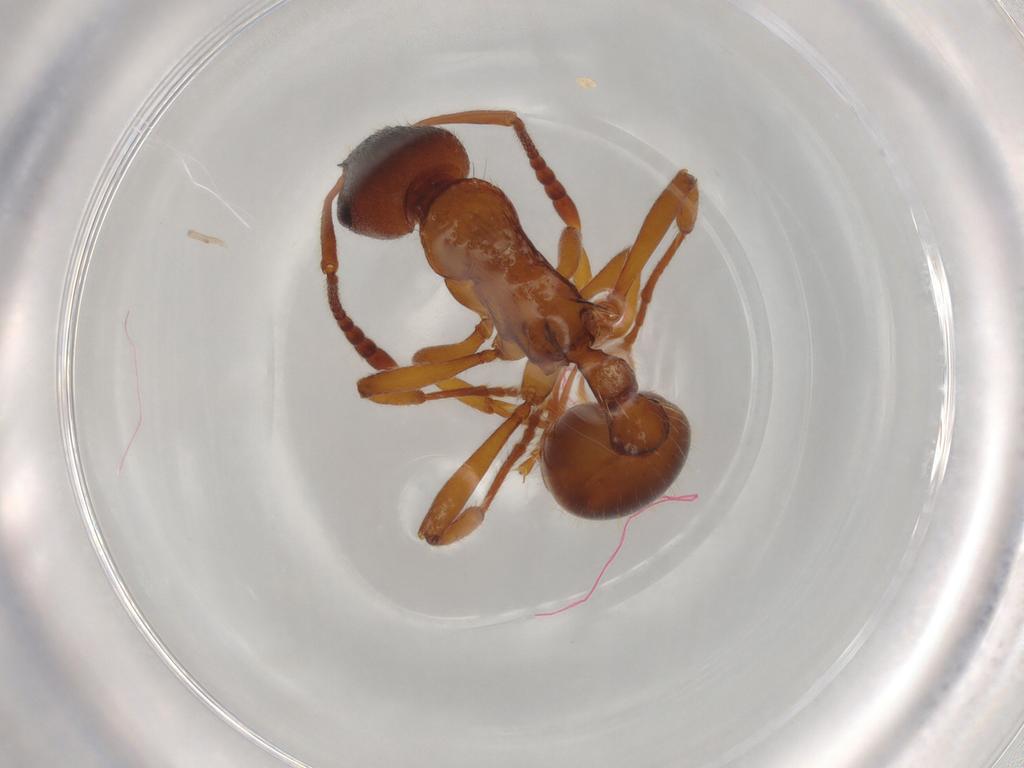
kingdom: Animalia
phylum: Arthropoda
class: Insecta
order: Hymenoptera
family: Formicidae
